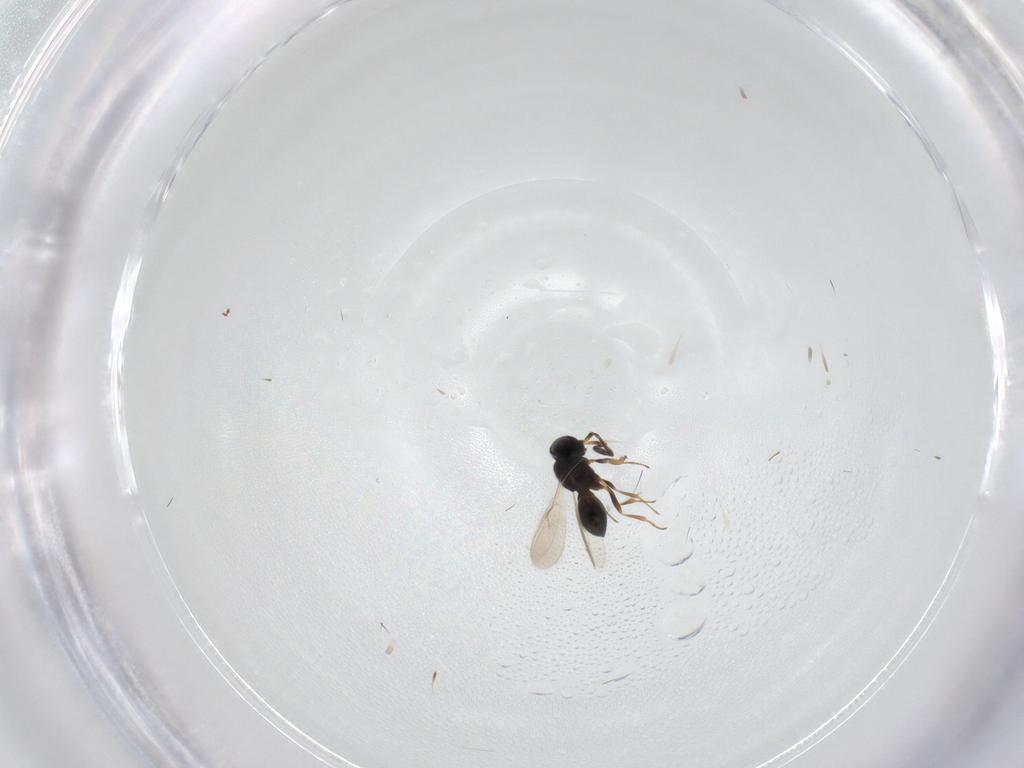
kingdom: Animalia
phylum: Arthropoda
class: Insecta
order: Hymenoptera
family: Scelionidae
